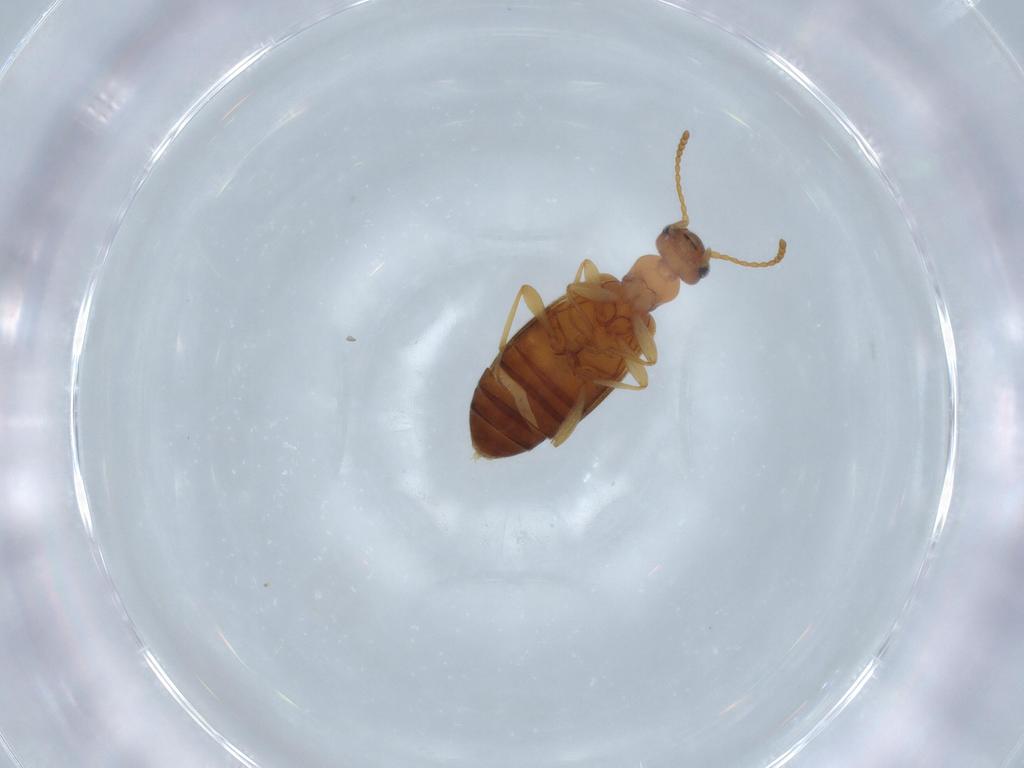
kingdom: Animalia
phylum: Arthropoda
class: Insecta
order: Coleoptera
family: Anthicidae
